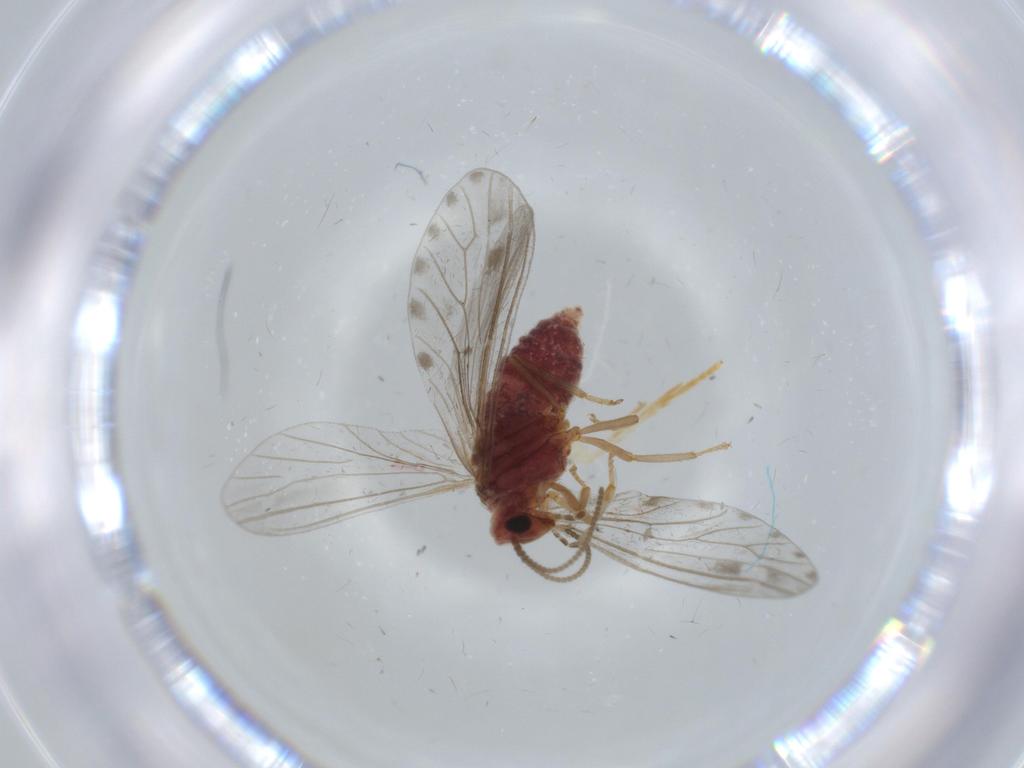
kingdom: Animalia
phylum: Arthropoda
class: Insecta
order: Neuroptera
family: Coniopterygidae
